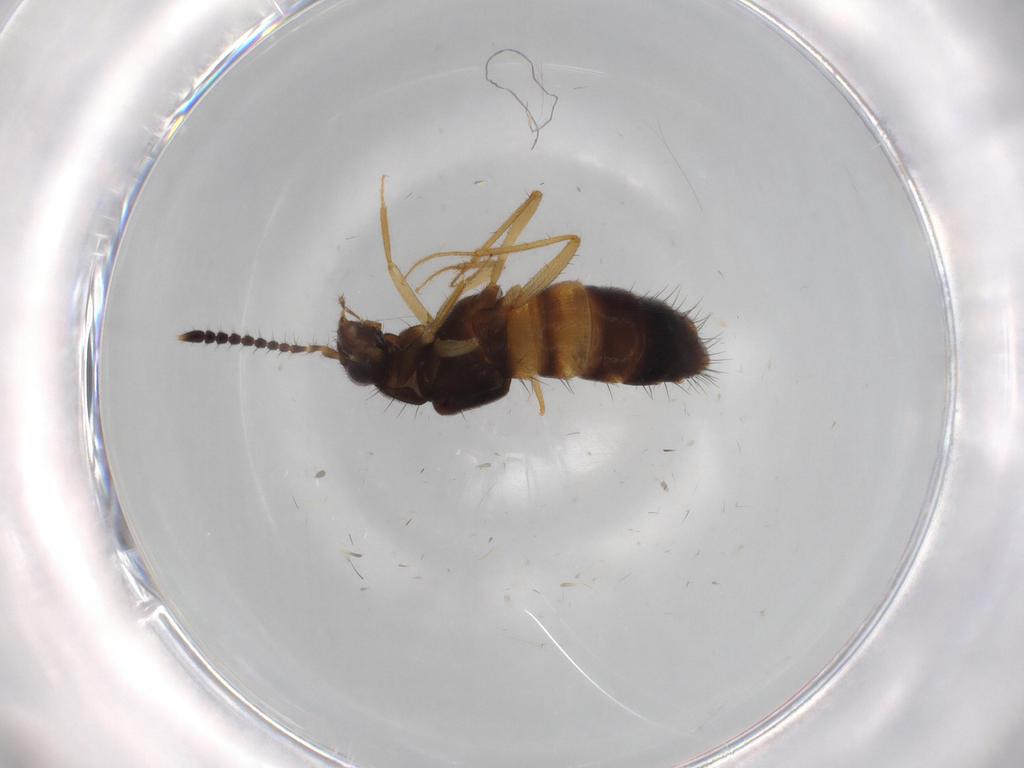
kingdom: Animalia
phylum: Arthropoda
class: Insecta
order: Coleoptera
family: Staphylinidae
